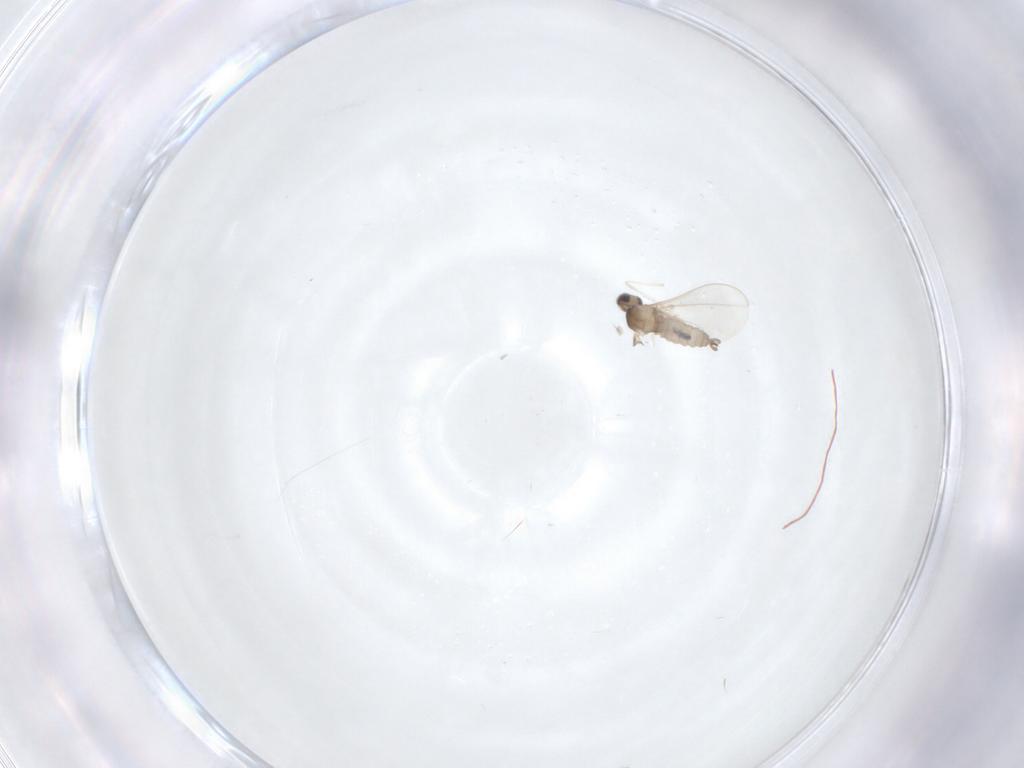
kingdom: Animalia
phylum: Arthropoda
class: Insecta
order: Diptera
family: Cecidomyiidae
